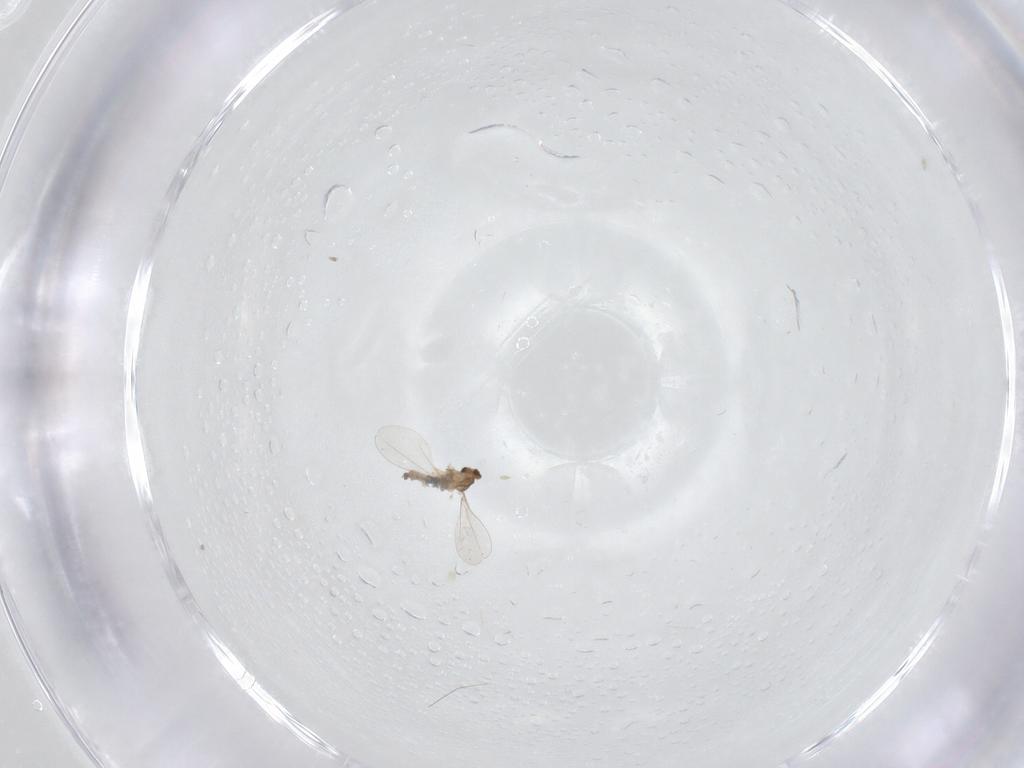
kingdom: Animalia
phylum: Arthropoda
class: Insecta
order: Diptera
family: Cecidomyiidae
